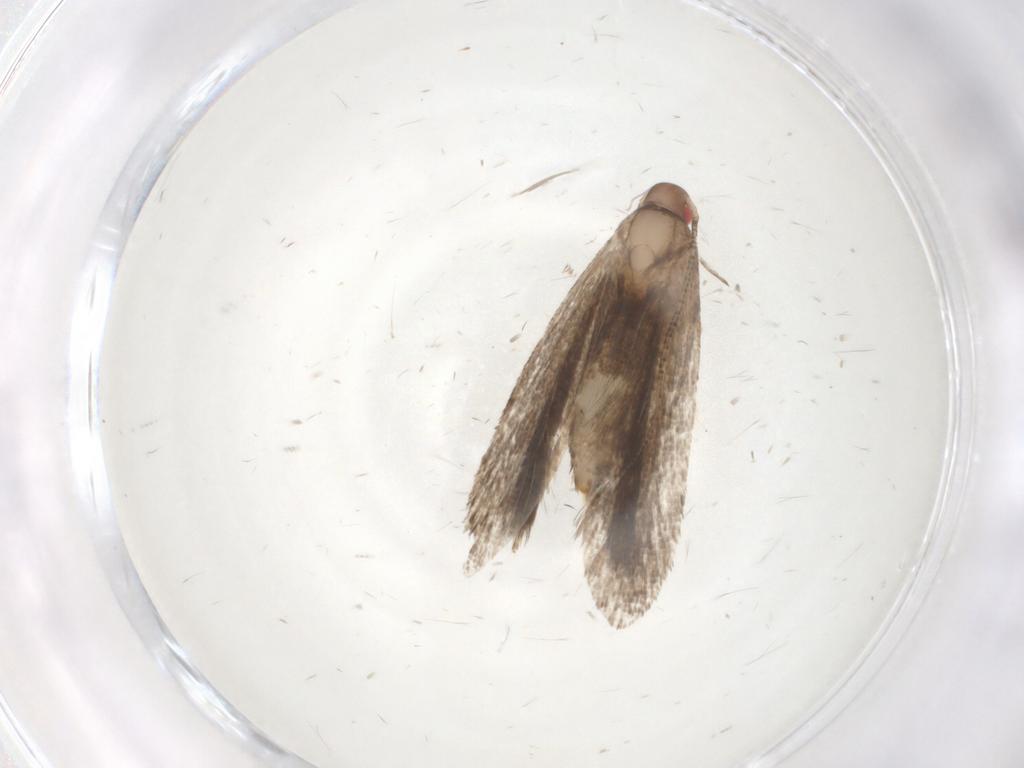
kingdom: Animalia
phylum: Arthropoda
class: Insecta
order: Lepidoptera
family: Gelechiidae
